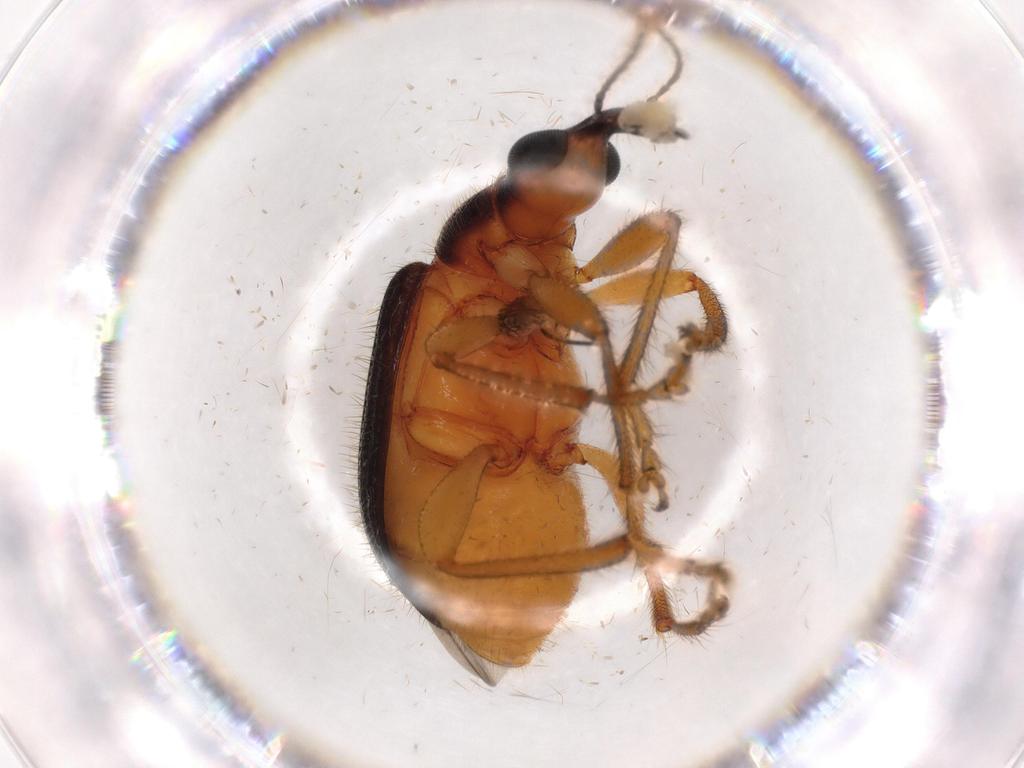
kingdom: Animalia
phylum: Arthropoda
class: Insecta
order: Coleoptera
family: Attelabidae
